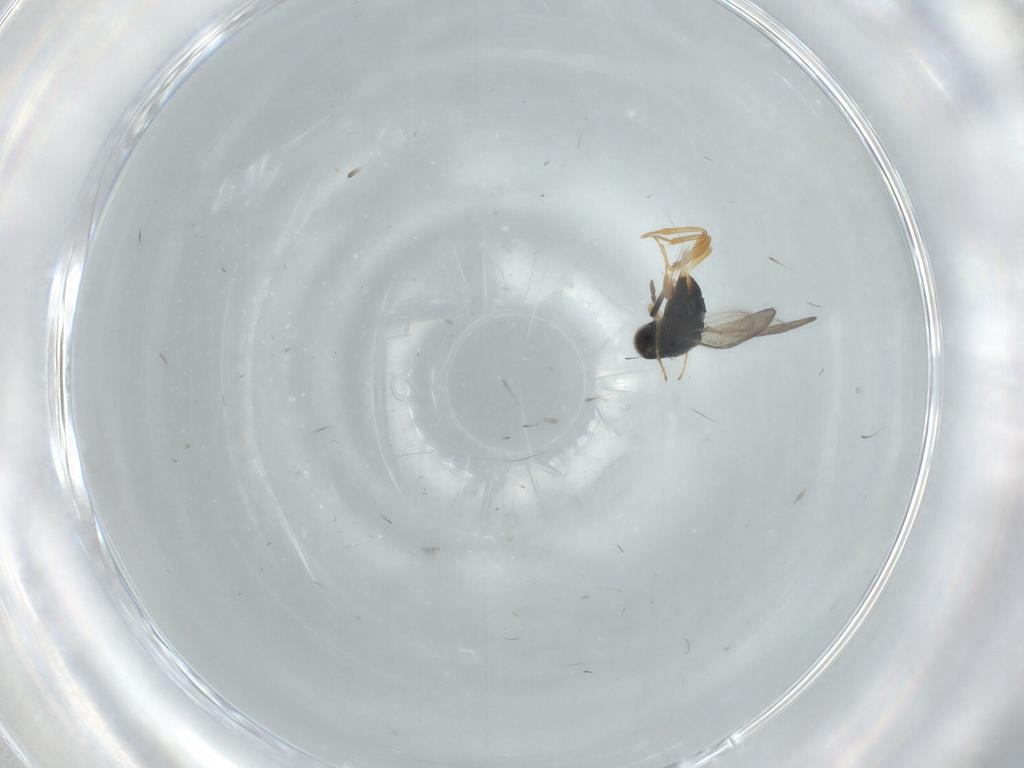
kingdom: Animalia
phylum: Arthropoda
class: Insecta
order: Hymenoptera
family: Eulophidae
